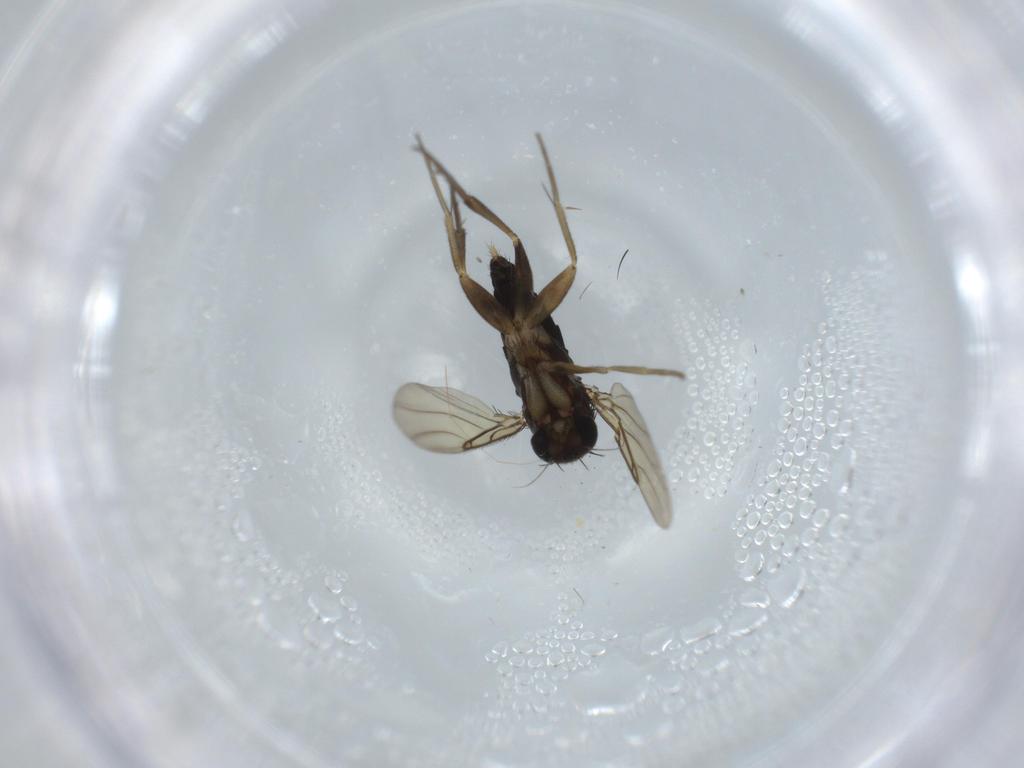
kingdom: Animalia
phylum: Arthropoda
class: Insecta
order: Diptera
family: Phoridae
